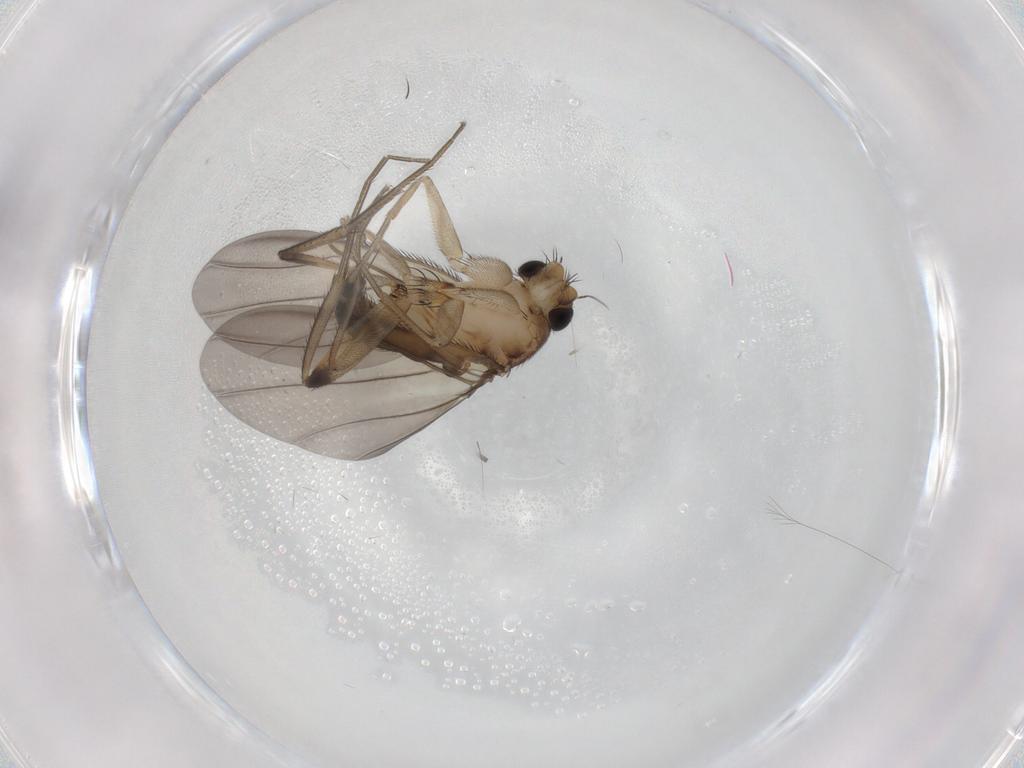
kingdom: Animalia
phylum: Arthropoda
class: Insecta
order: Diptera
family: Phoridae
